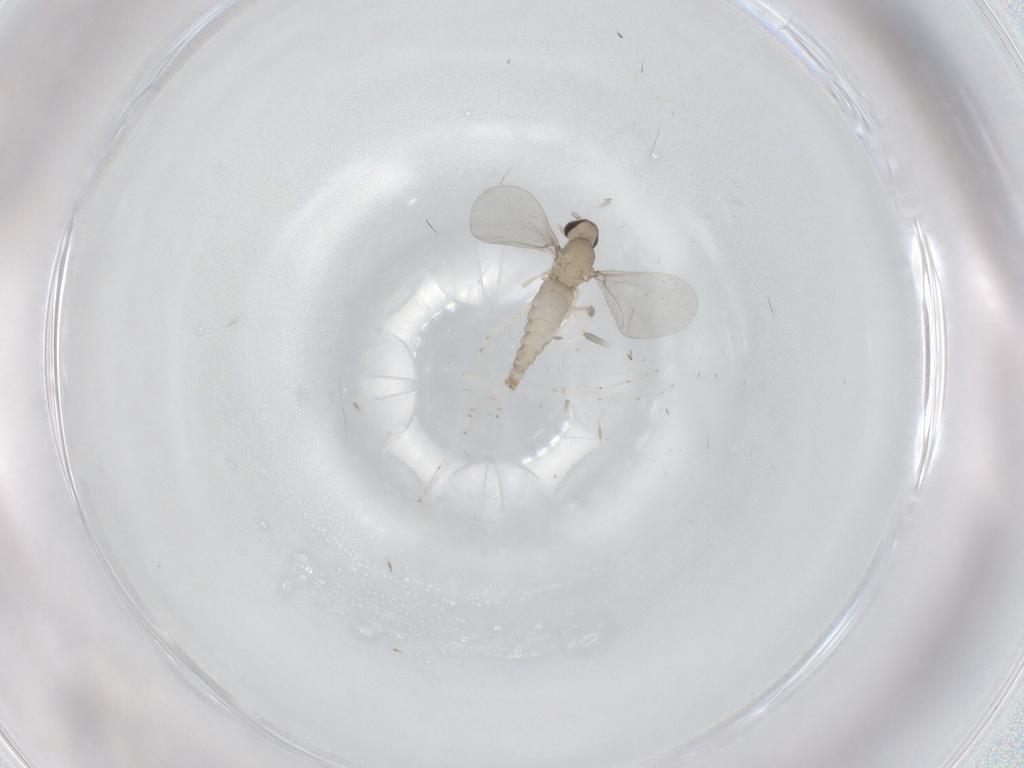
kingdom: Animalia
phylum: Arthropoda
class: Insecta
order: Diptera
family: Cecidomyiidae
